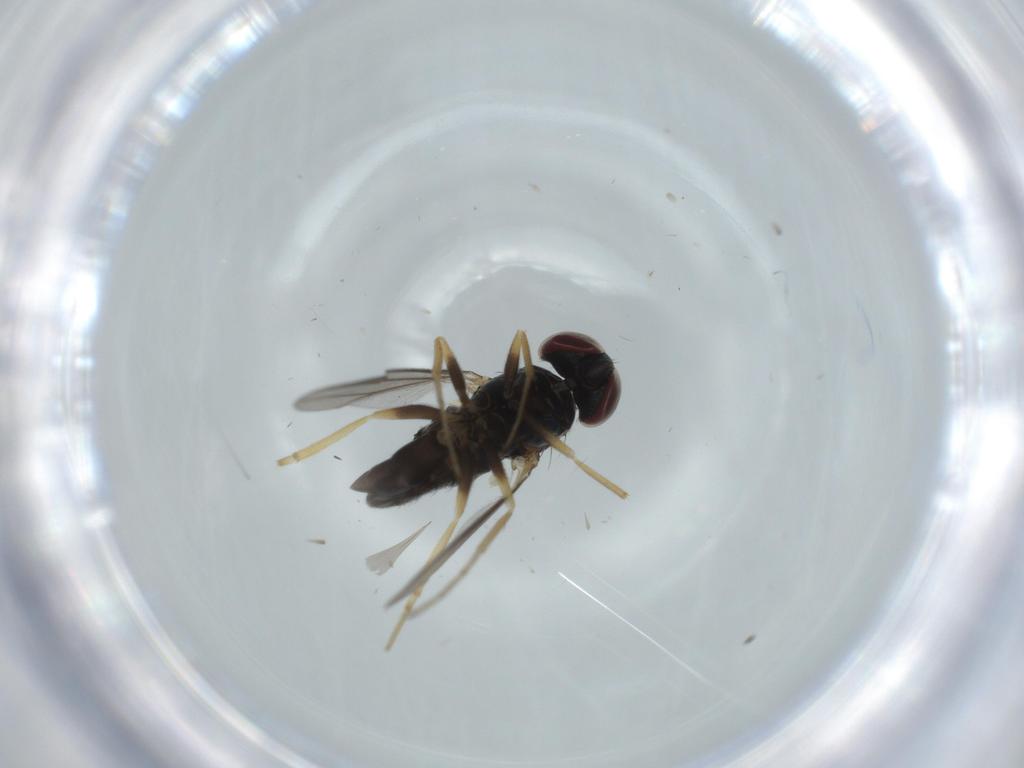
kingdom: Animalia
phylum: Arthropoda
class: Insecta
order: Diptera
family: Dolichopodidae
